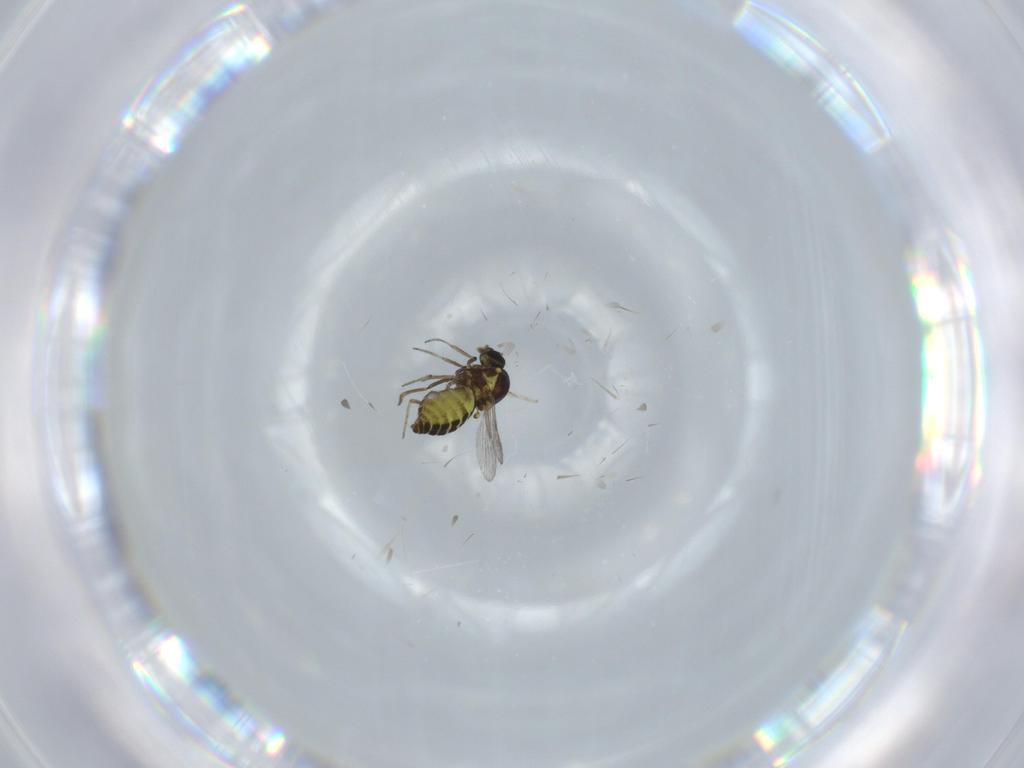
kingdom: Animalia
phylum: Arthropoda
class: Insecta
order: Diptera
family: Ceratopogonidae
